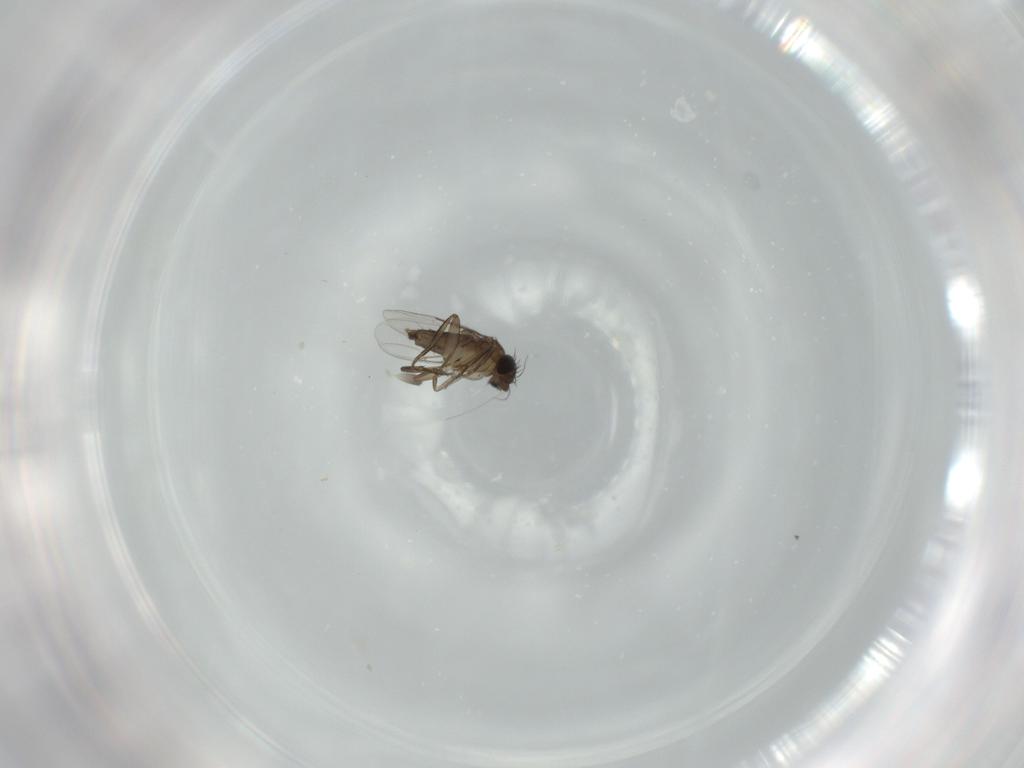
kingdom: Animalia
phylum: Arthropoda
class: Insecta
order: Diptera
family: Phoridae
